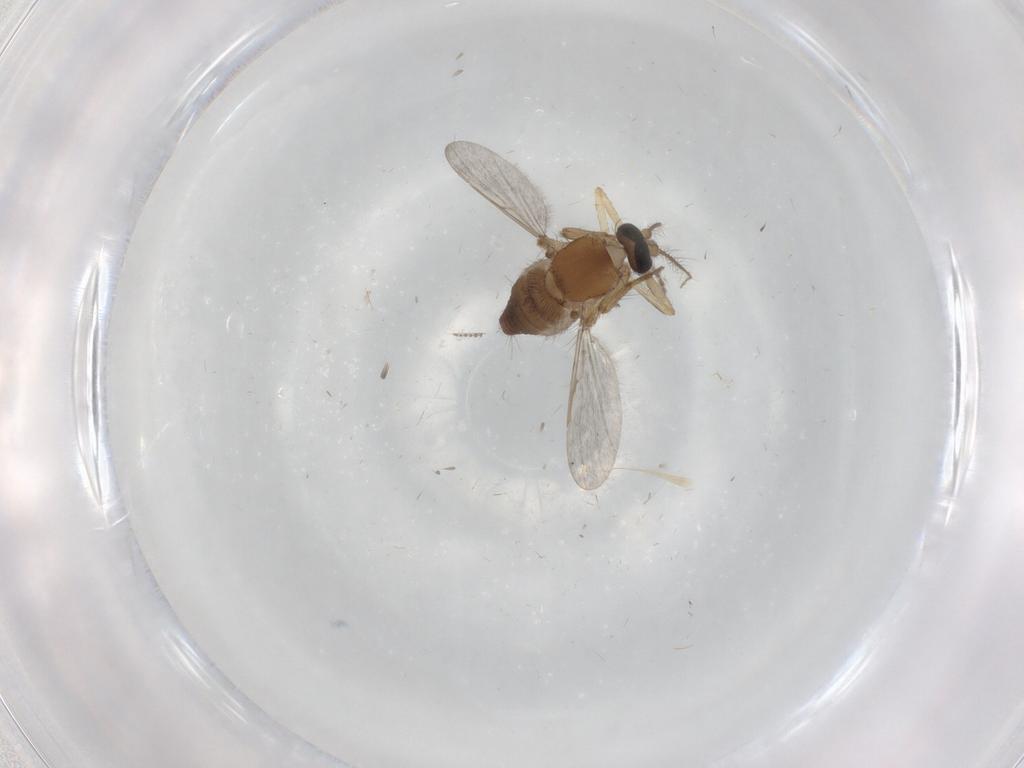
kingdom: Animalia
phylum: Arthropoda
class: Insecta
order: Diptera
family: Ceratopogonidae
